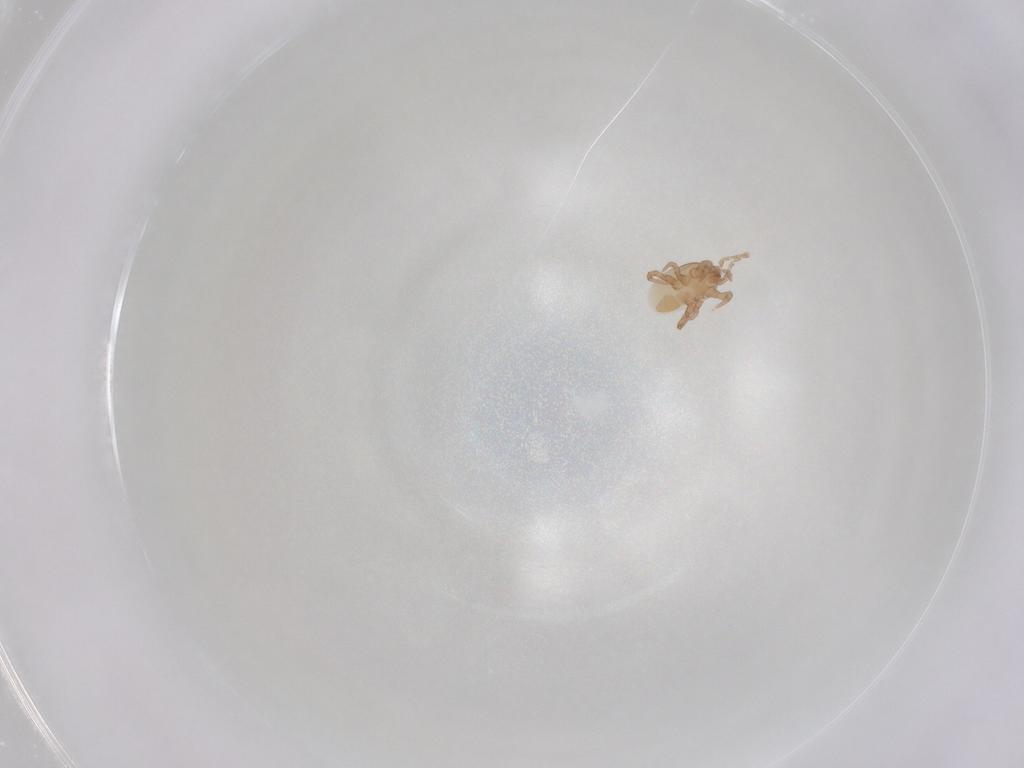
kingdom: Animalia
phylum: Arthropoda
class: Arachnida
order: Mesostigmata
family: Macrochelidae
